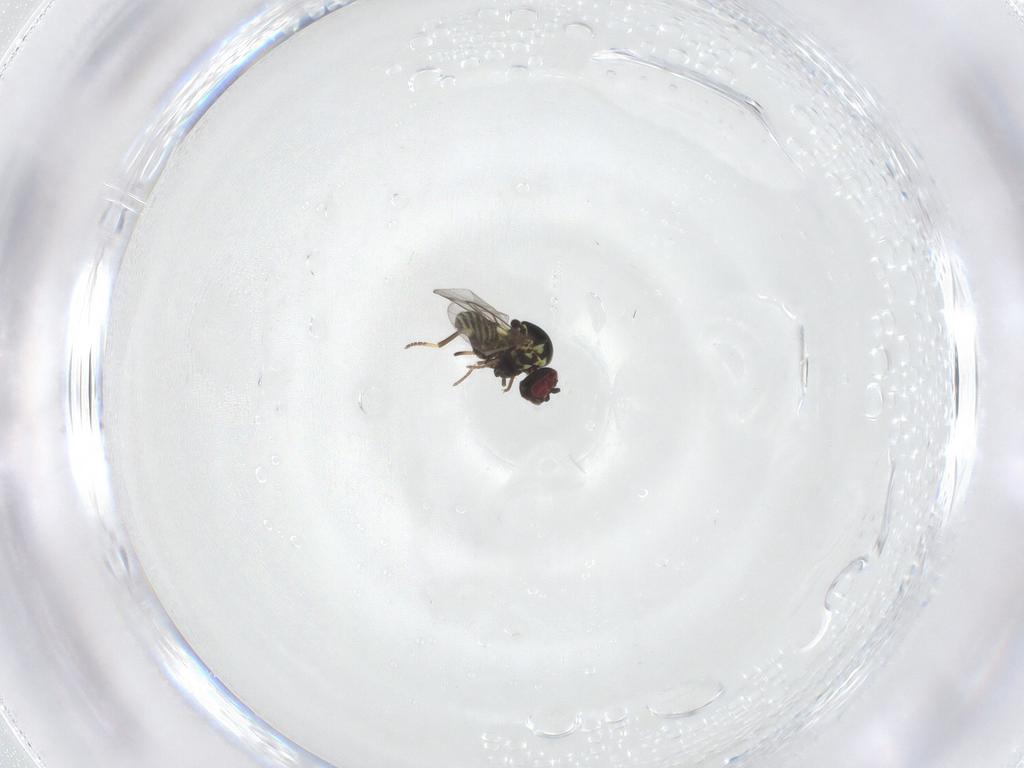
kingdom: Animalia
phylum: Arthropoda
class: Insecta
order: Diptera
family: Mythicomyiidae
